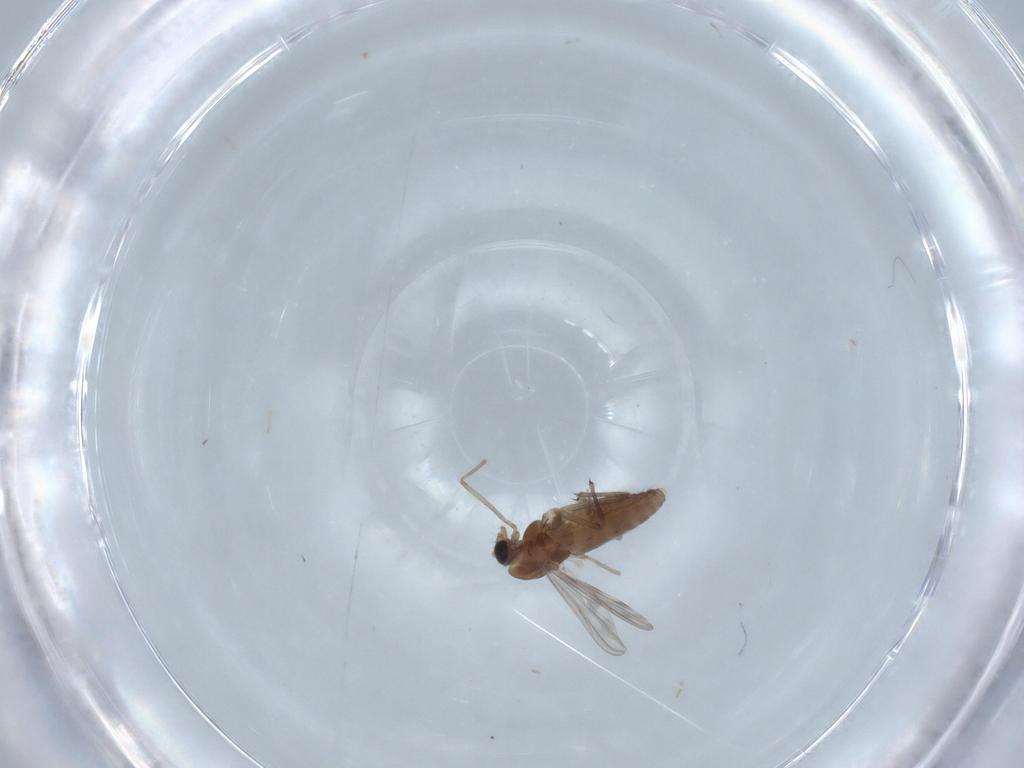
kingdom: Animalia
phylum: Arthropoda
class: Insecta
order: Diptera
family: Chironomidae
